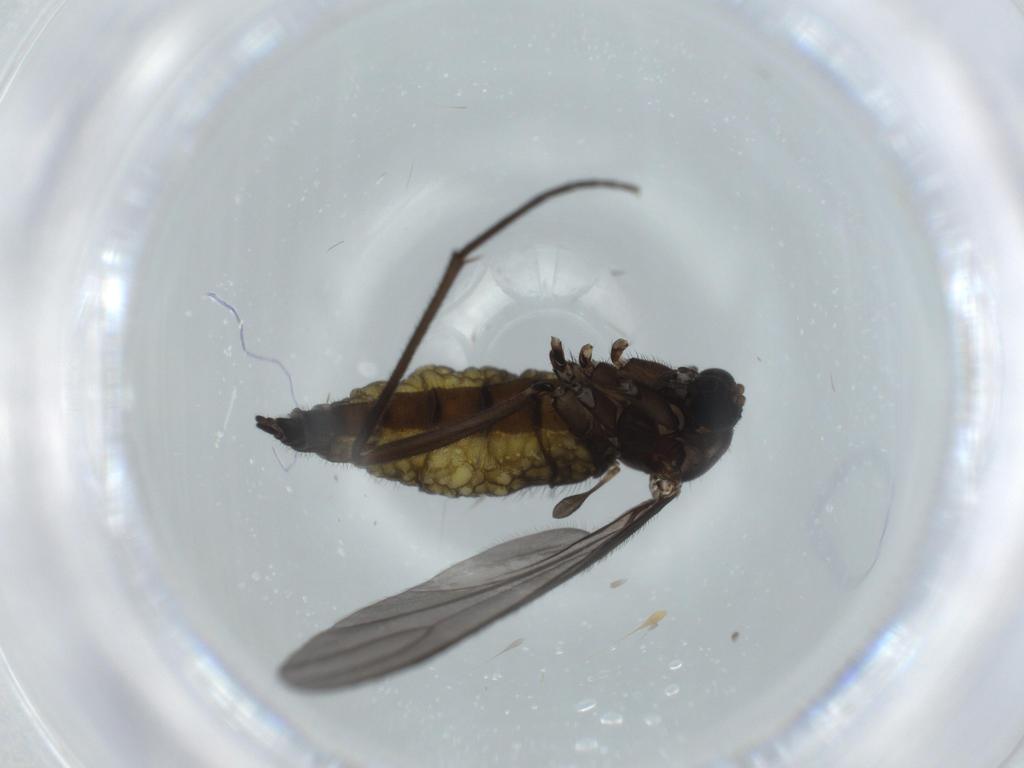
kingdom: Animalia
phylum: Arthropoda
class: Insecta
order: Diptera
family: Sciaridae
